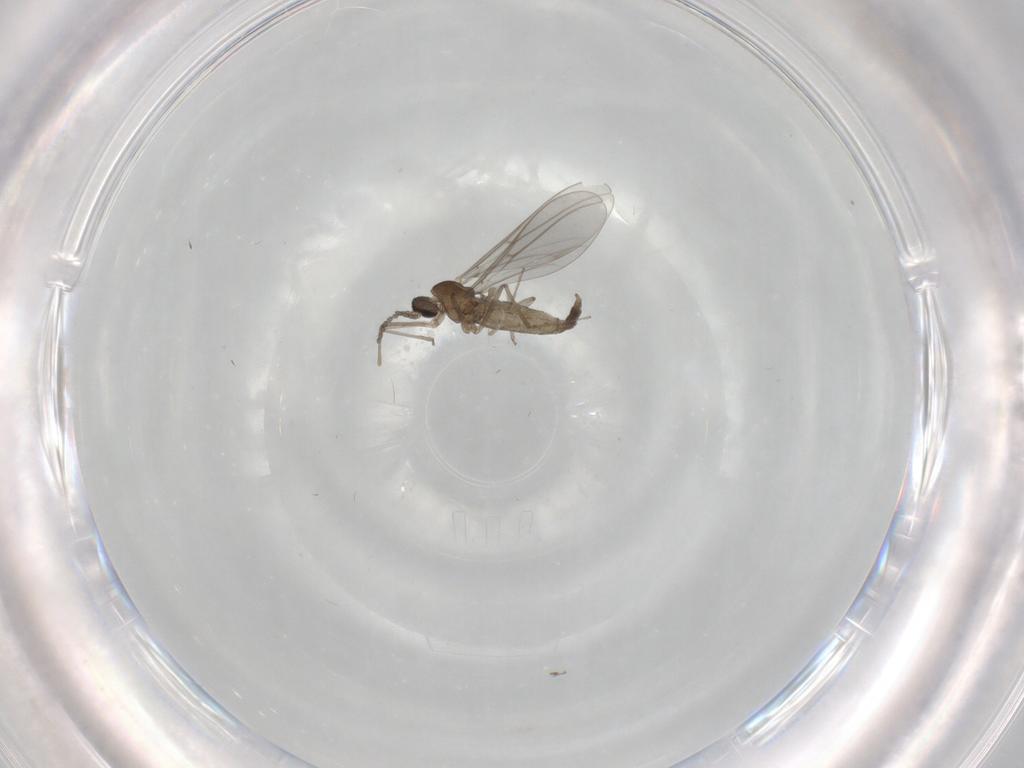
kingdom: Animalia
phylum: Arthropoda
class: Insecta
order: Diptera
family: Cecidomyiidae
